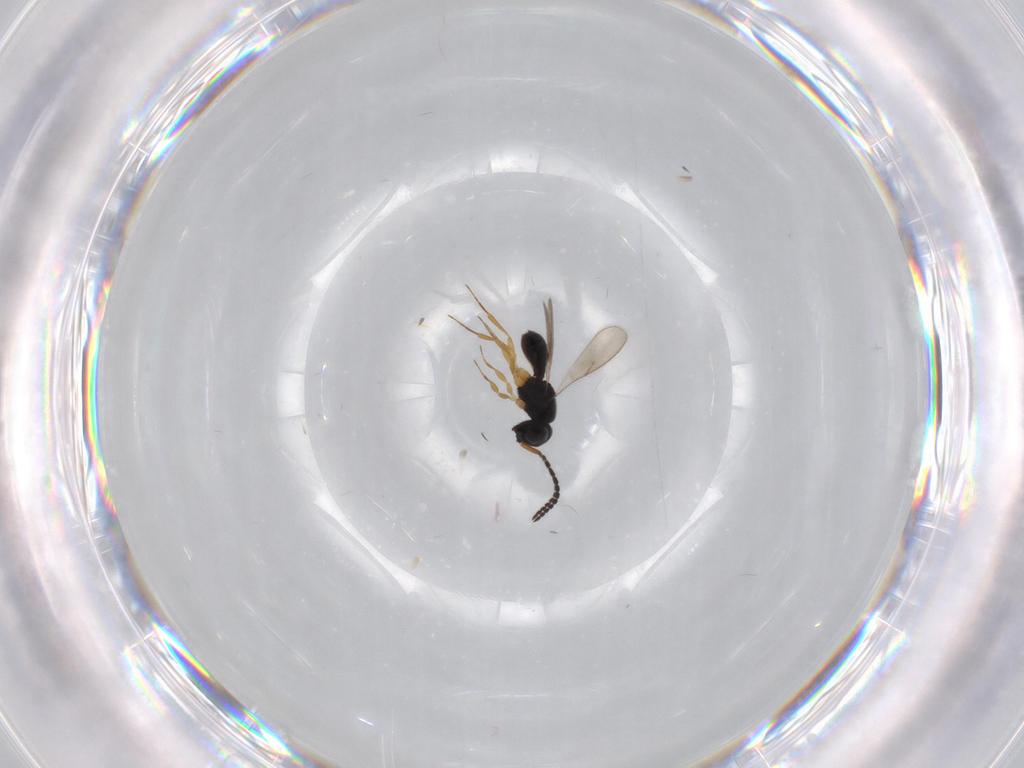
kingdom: Animalia
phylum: Arthropoda
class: Insecta
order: Hymenoptera
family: Scelionidae
